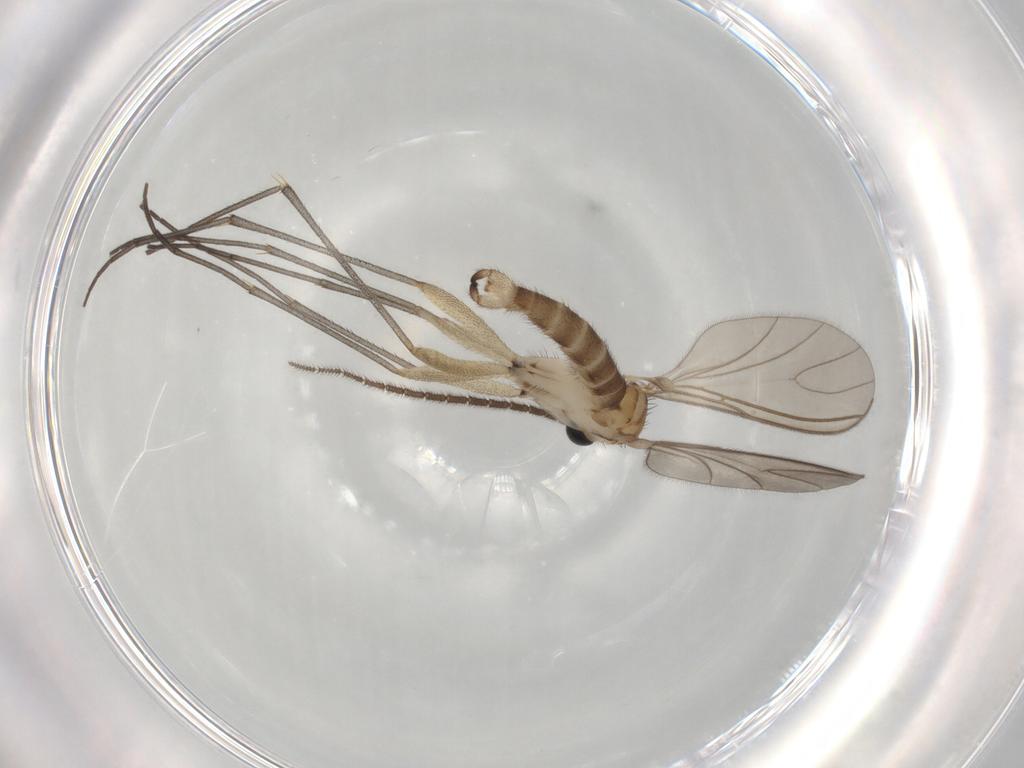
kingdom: Animalia
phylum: Arthropoda
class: Insecta
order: Diptera
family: Sciaridae
